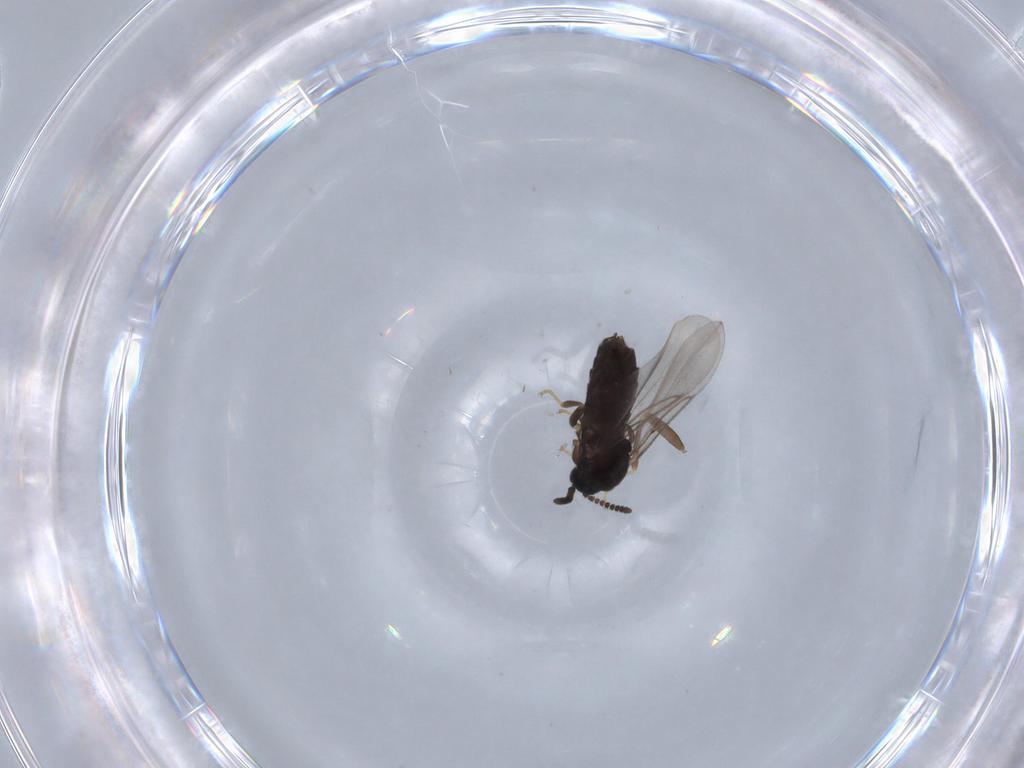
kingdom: Animalia
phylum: Arthropoda
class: Insecta
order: Diptera
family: Hybotidae
